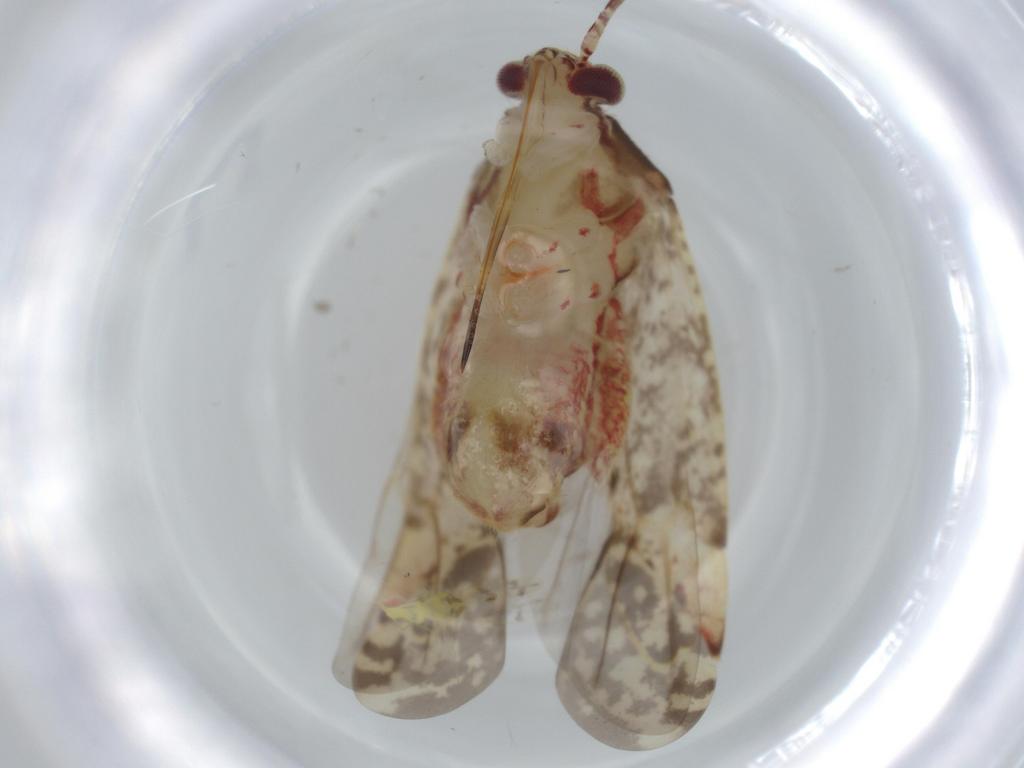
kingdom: Animalia
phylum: Arthropoda
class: Insecta
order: Hemiptera
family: Miridae
